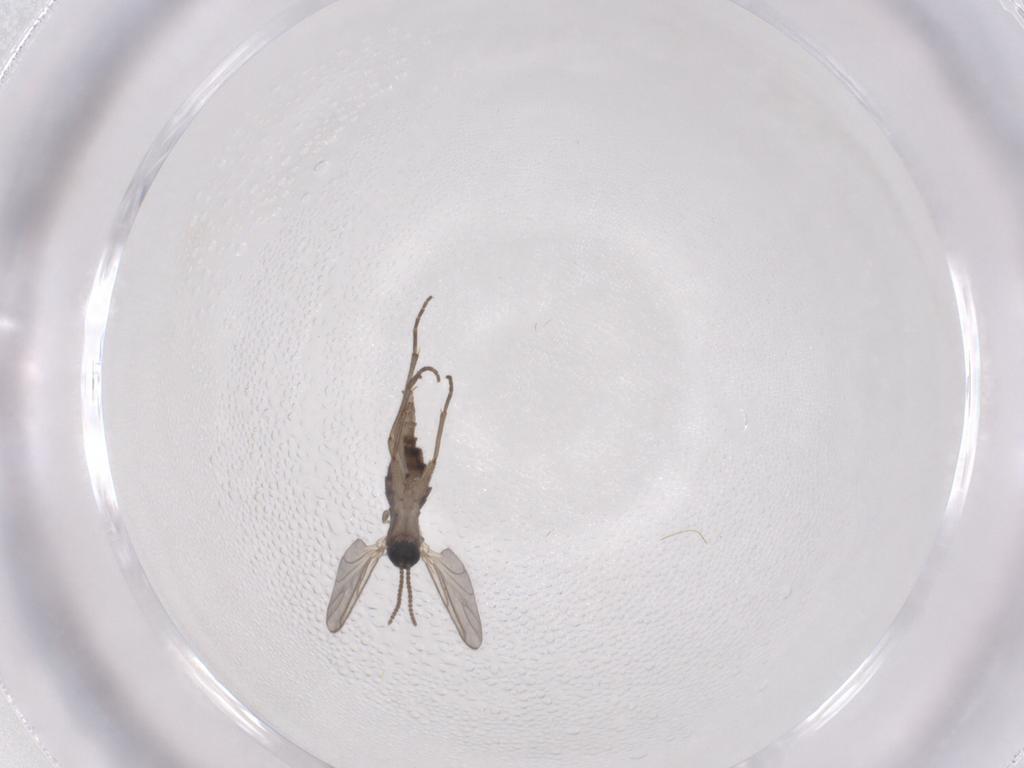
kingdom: Animalia
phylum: Arthropoda
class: Insecta
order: Diptera
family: Sciaridae
